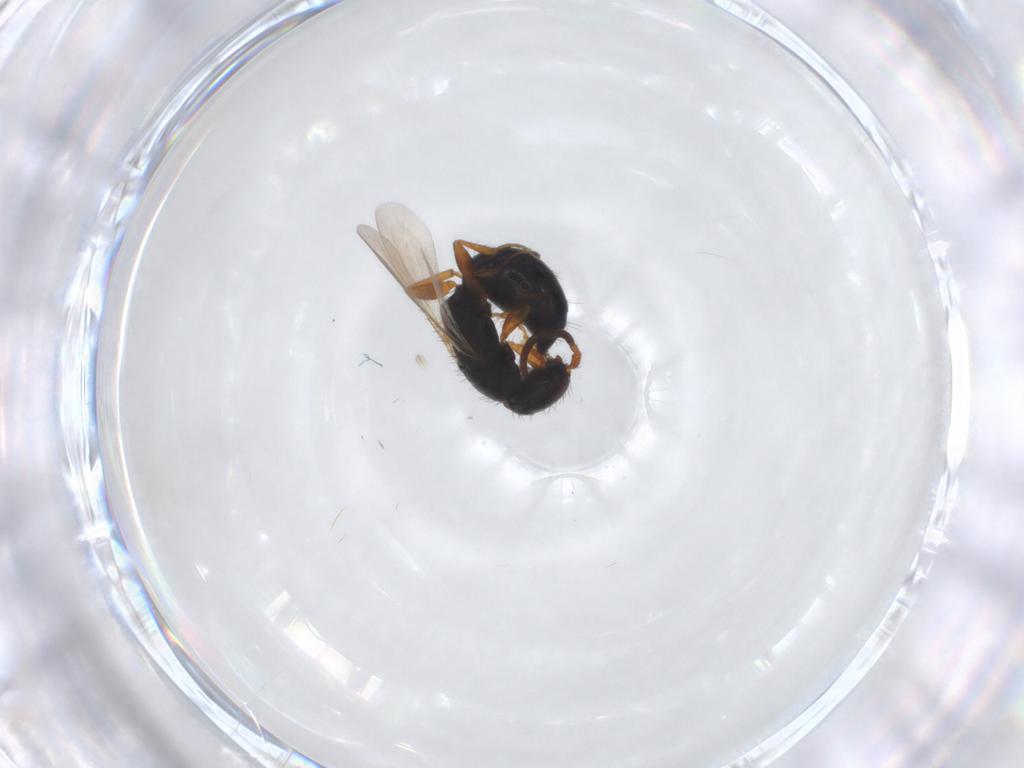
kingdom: Animalia
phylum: Arthropoda
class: Insecta
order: Hymenoptera
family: Bethylidae
